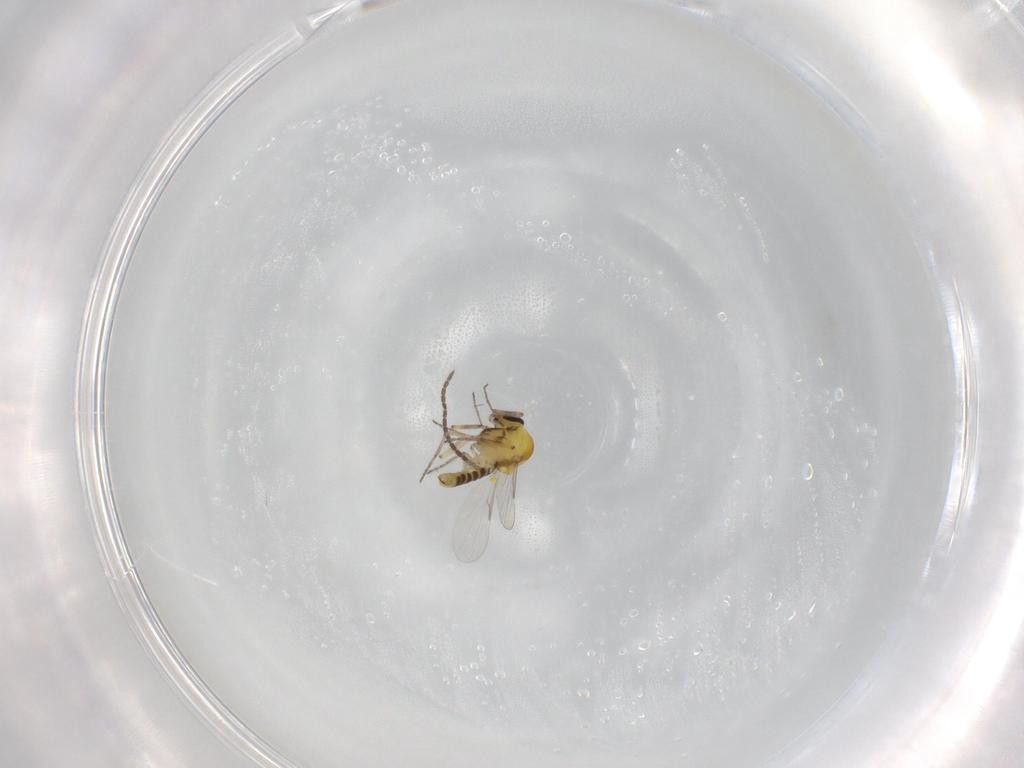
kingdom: Animalia
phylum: Arthropoda
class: Insecta
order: Diptera
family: Ceratopogonidae
